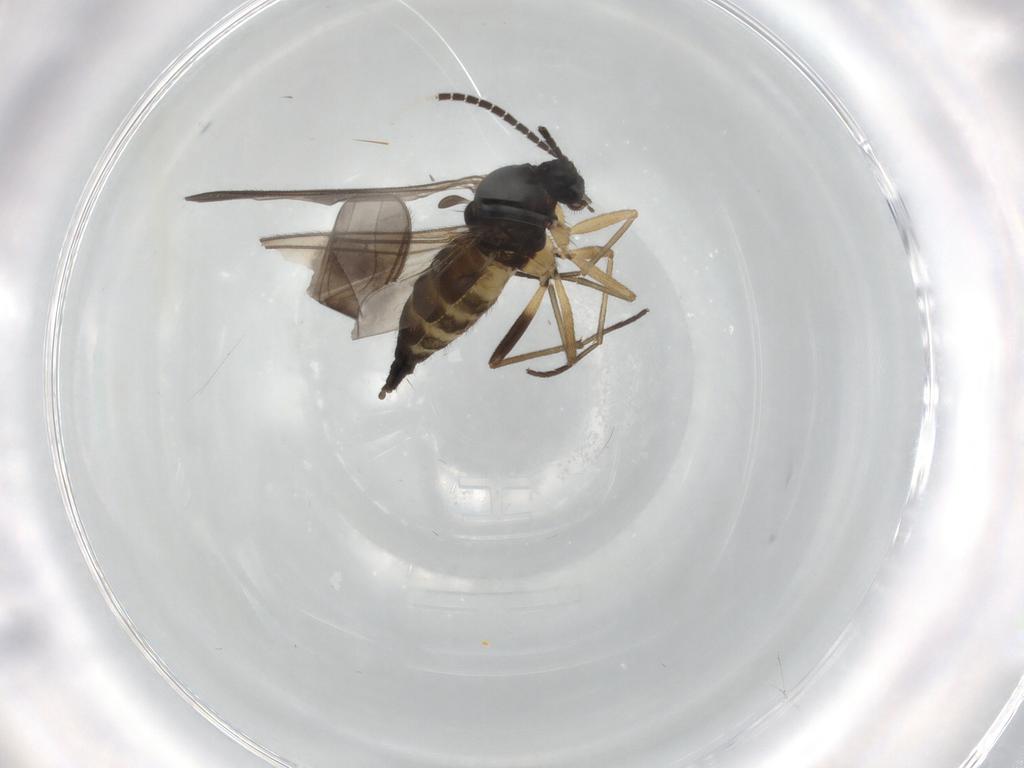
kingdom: Animalia
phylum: Arthropoda
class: Insecta
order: Diptera
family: Sciaridae
